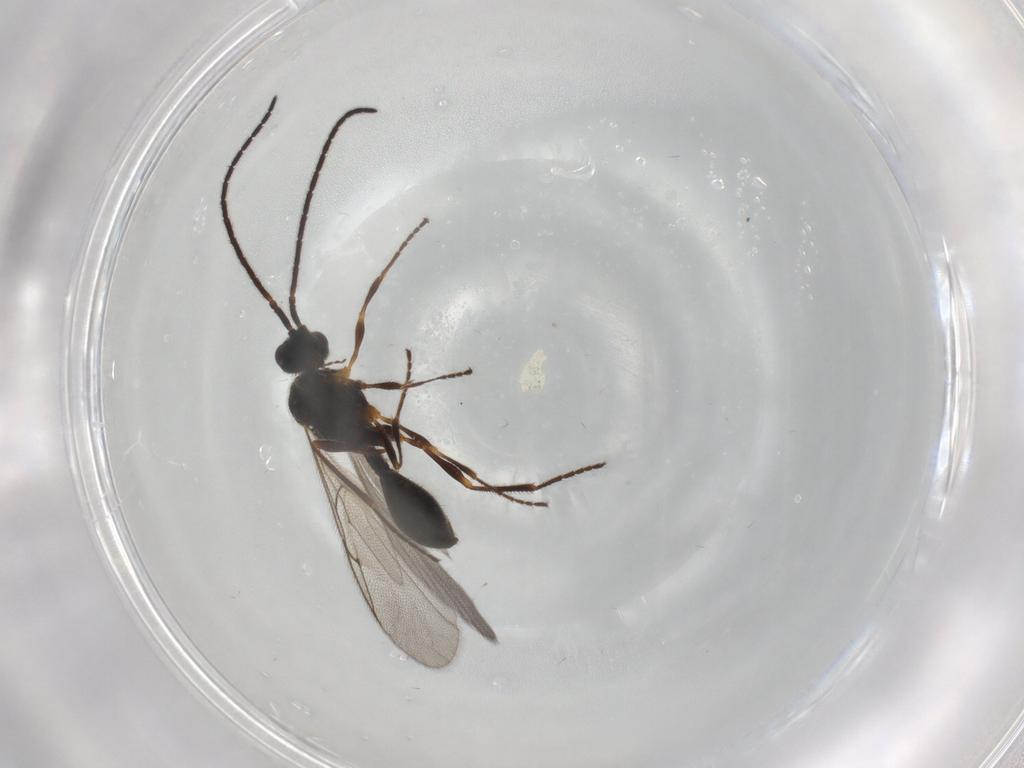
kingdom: Animalia
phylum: Arthropoda
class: Insecta
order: Hymenoptera
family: Diapriidae
